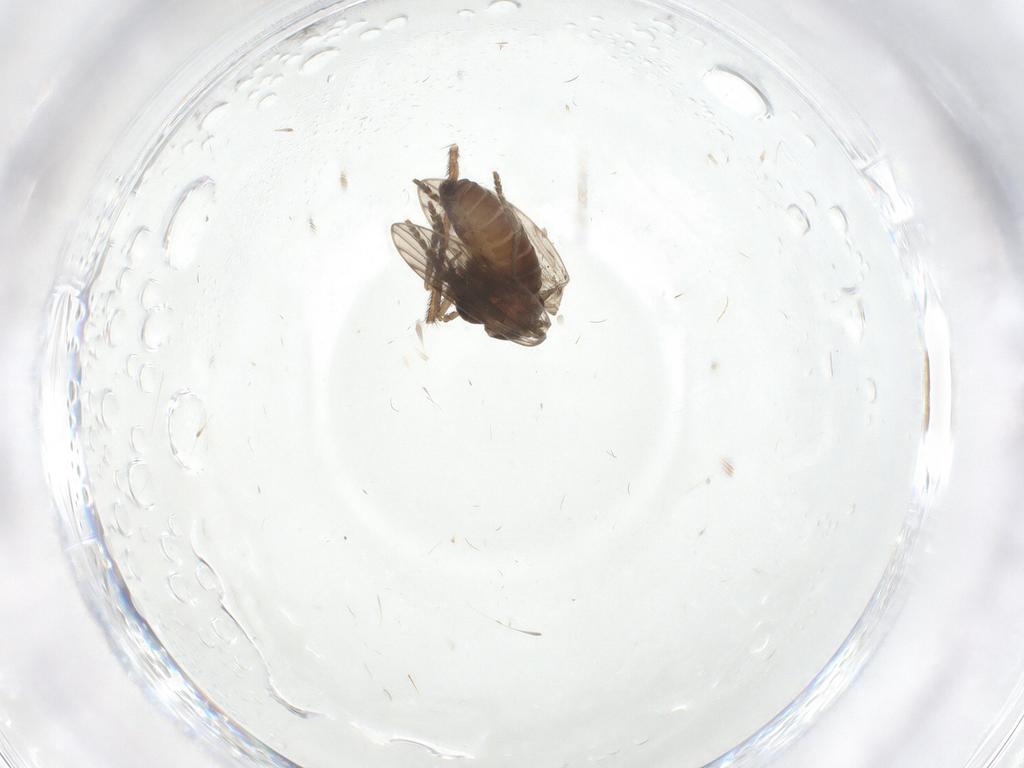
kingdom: Animalia
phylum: Arthropoda
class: Insecta
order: Diptera
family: Psychodidae
